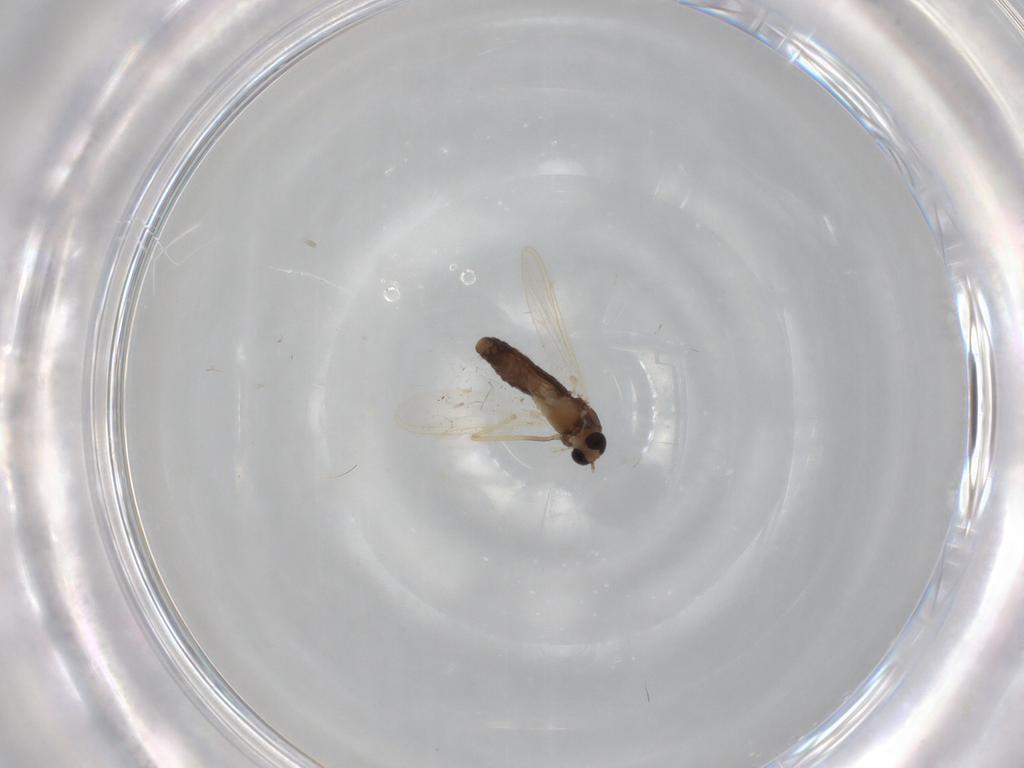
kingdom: Animalia
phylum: Arthropoda
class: Insecta
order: Diptera
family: Chironomidae
